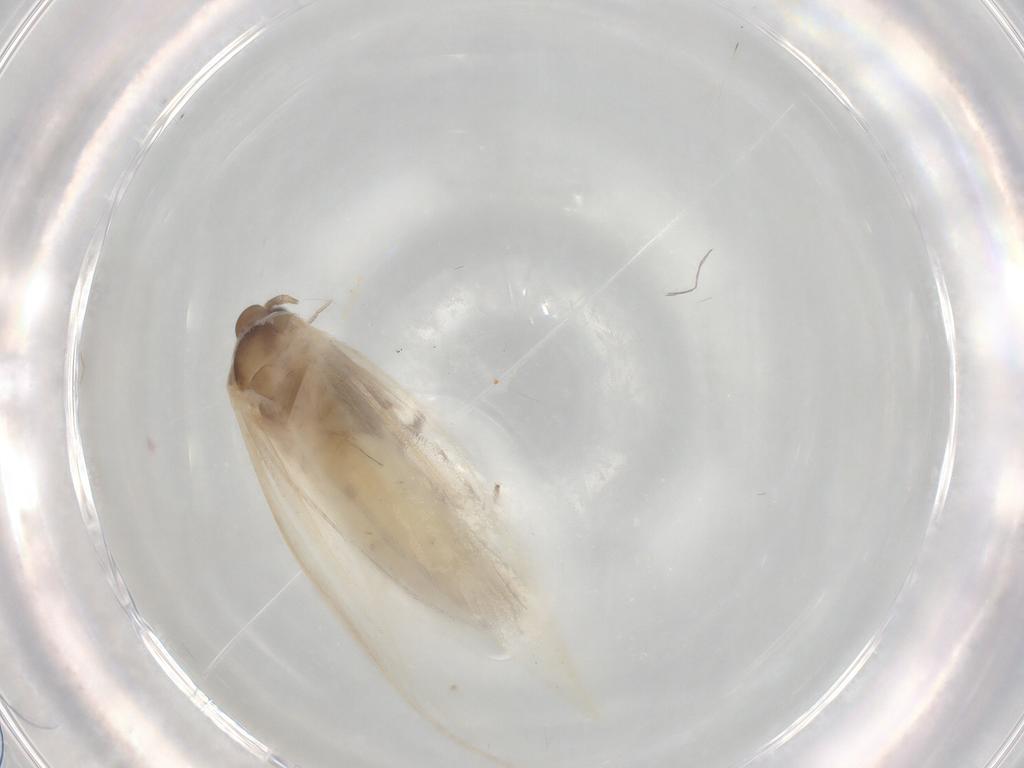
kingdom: Animalia
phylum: Arthropoda
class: Insecta
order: Lepidoptera
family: Elachistidae
